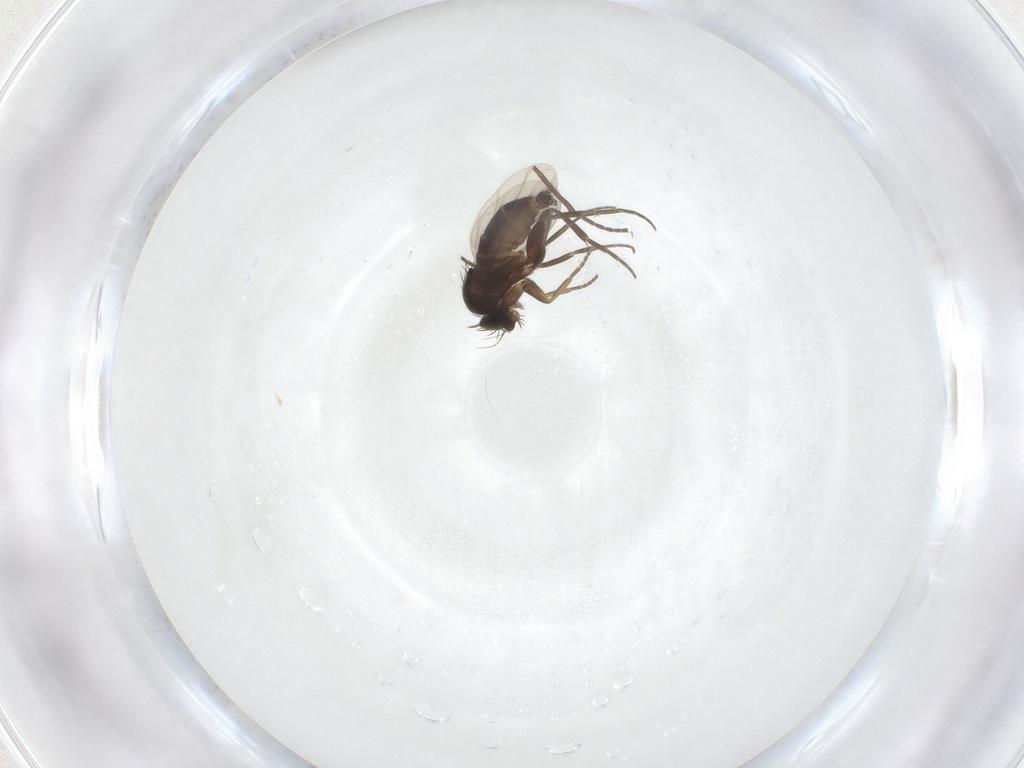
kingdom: Animalia
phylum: Arthropoda
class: Insecta
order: Diptera
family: Sciaridae
